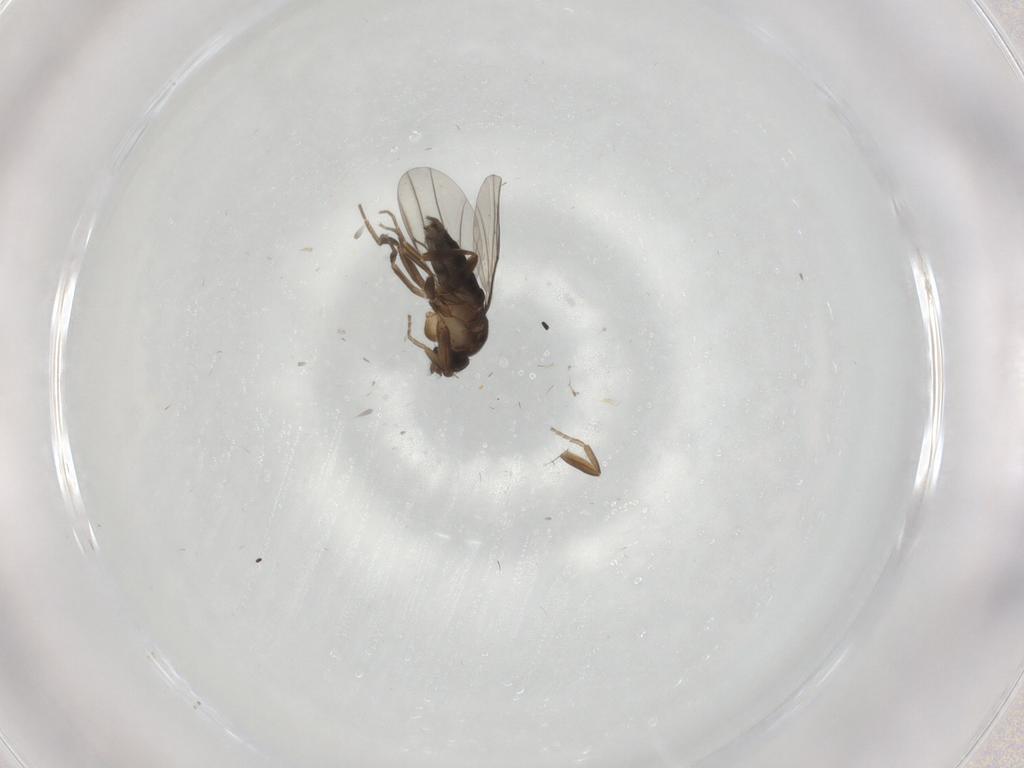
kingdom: Animalia
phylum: Arthropoda
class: Insecta
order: Diptera
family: Phoridae
